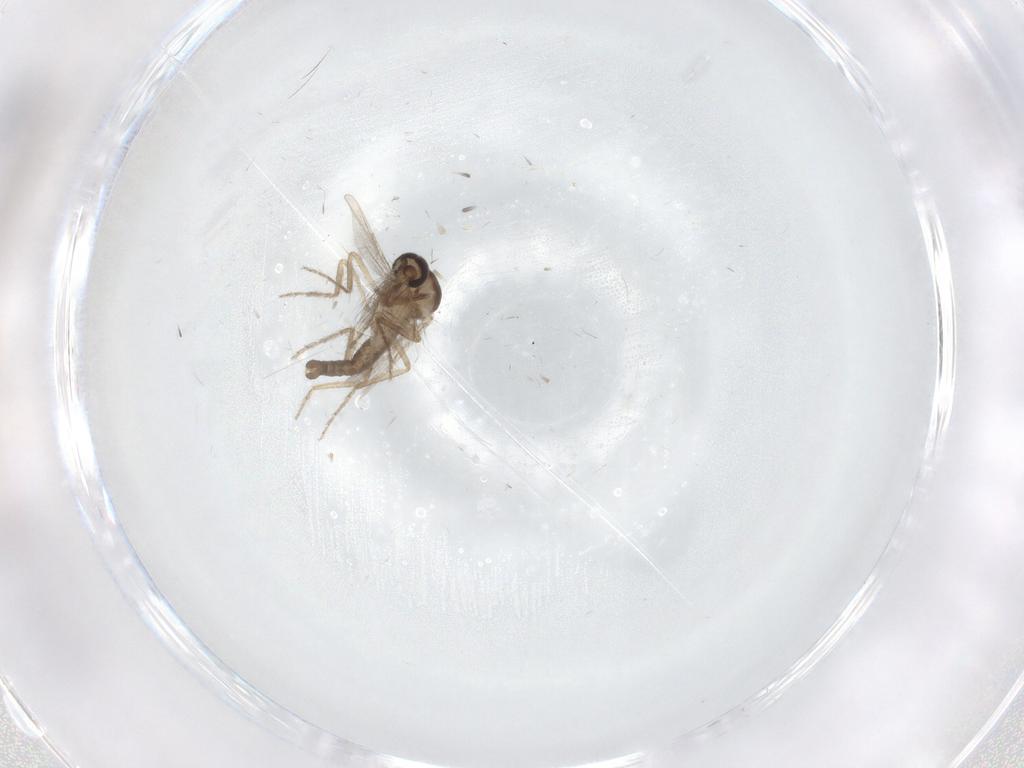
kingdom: Animalia
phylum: Arthropoda
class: Insecta
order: Diptera
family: Ceratopogonidae
